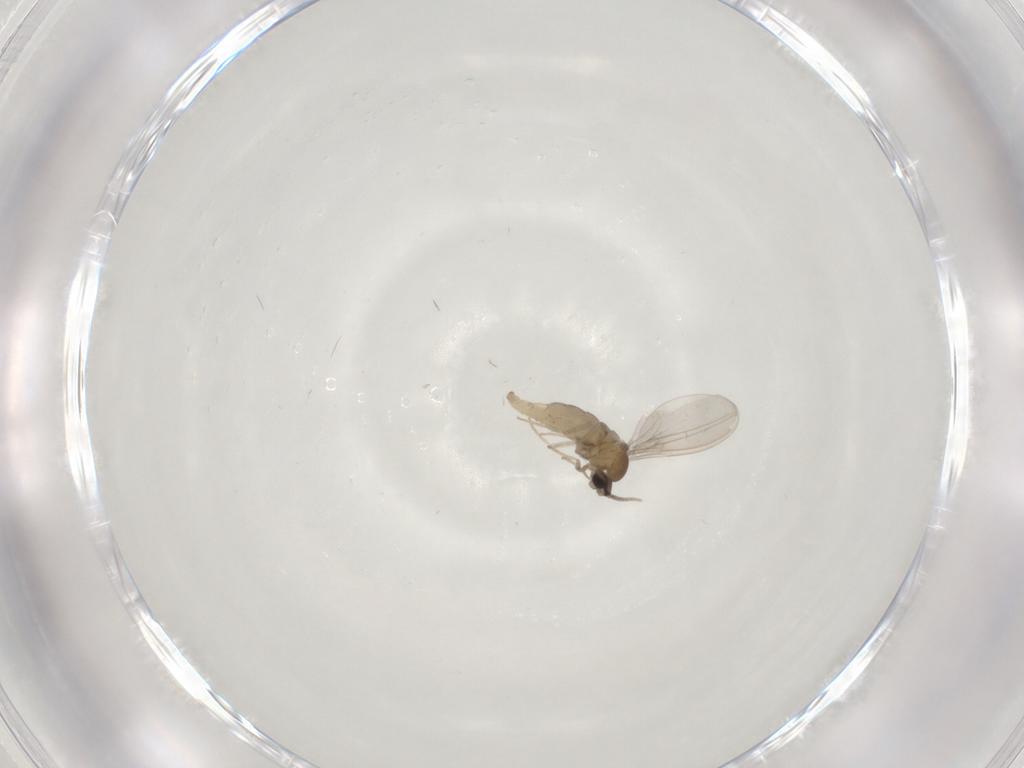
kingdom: Animalia
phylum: Arthropoda
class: Insecta
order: Diptera
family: Cecidomyiidae
